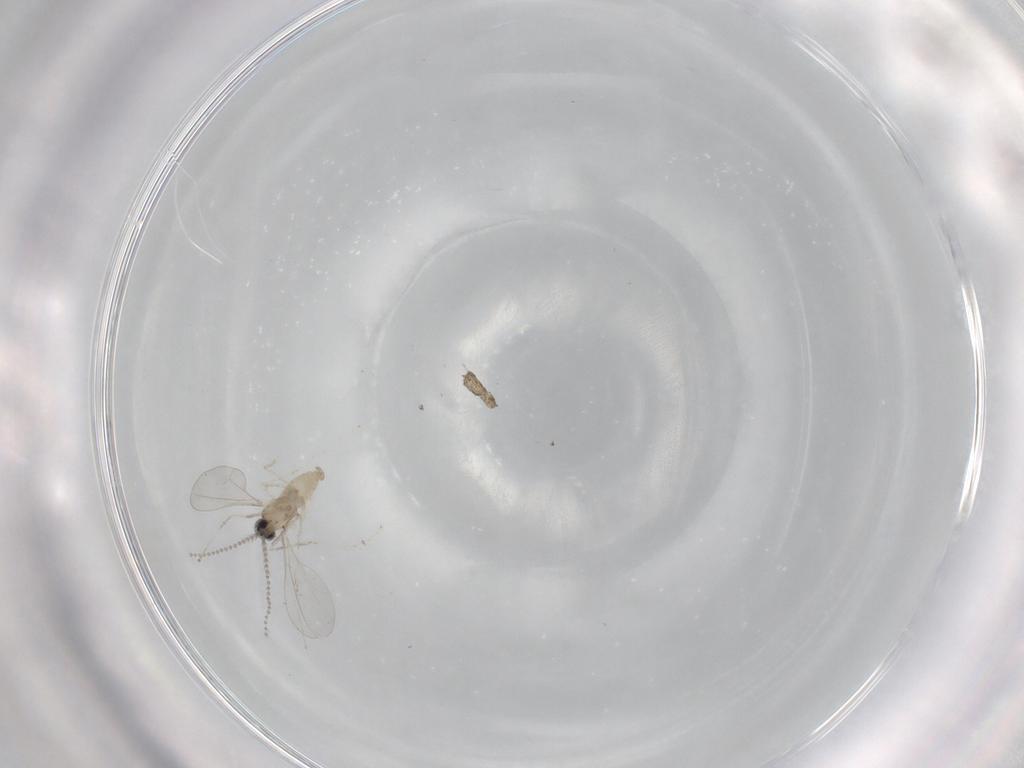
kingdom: Animalia
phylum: Arthropoda
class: Insecta
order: Diptera
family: Cecidomyiidae
